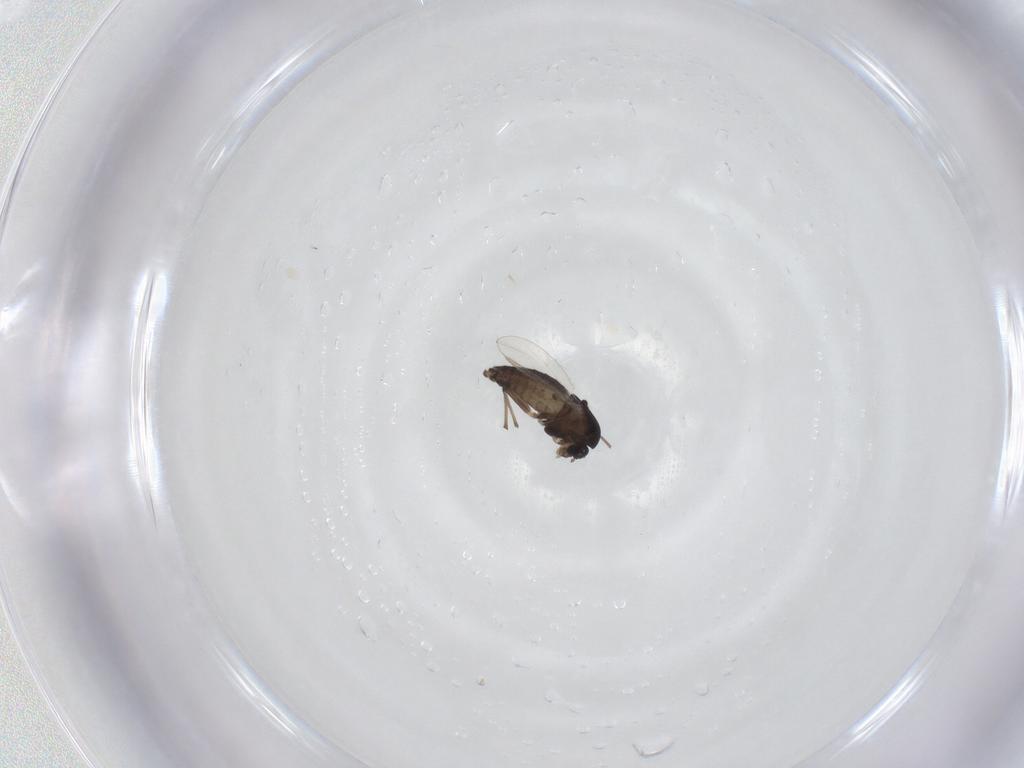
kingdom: Animalia
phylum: Arthropoda
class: Insecta
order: Diptera
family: Chironomidae
